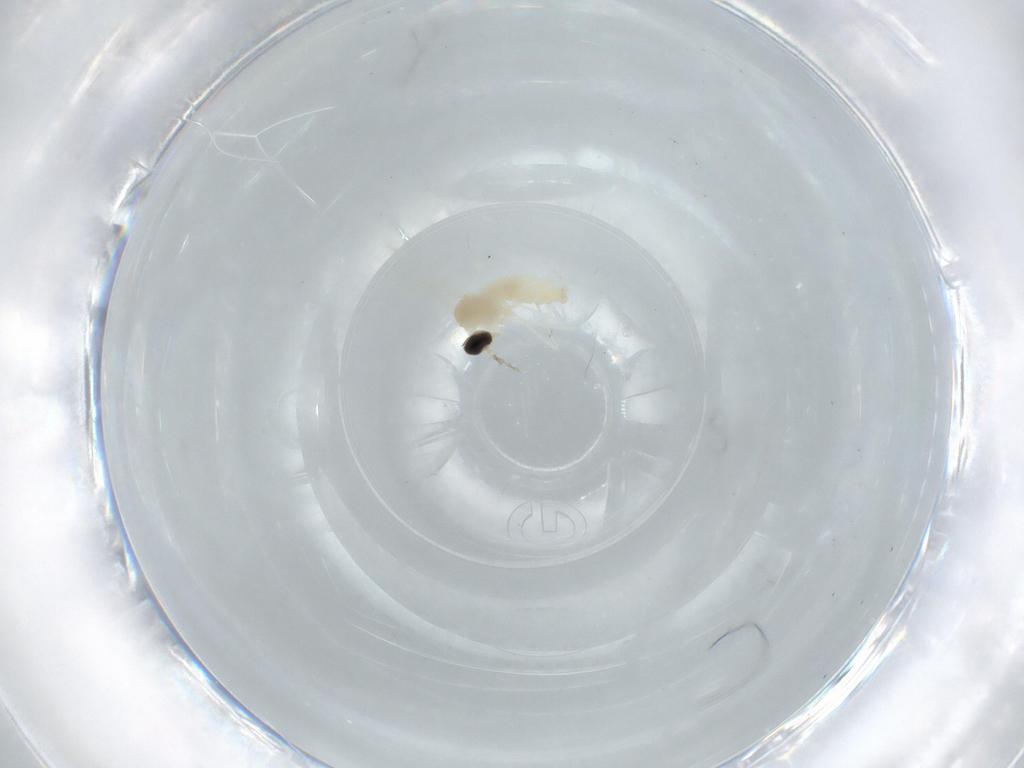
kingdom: Animalia
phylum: Arthropoda
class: Insecta
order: Diptera
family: Cecidomyiidae
